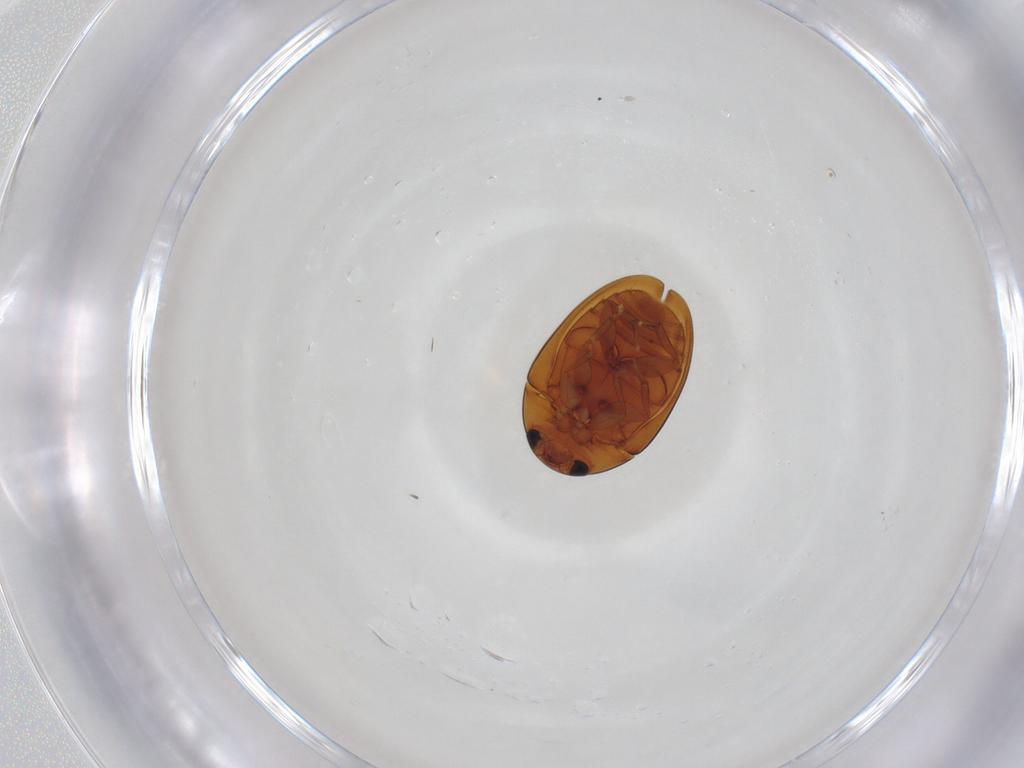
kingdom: Animalia
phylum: Arthropoda
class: Insecta
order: Coleoptera
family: Phalacridae
